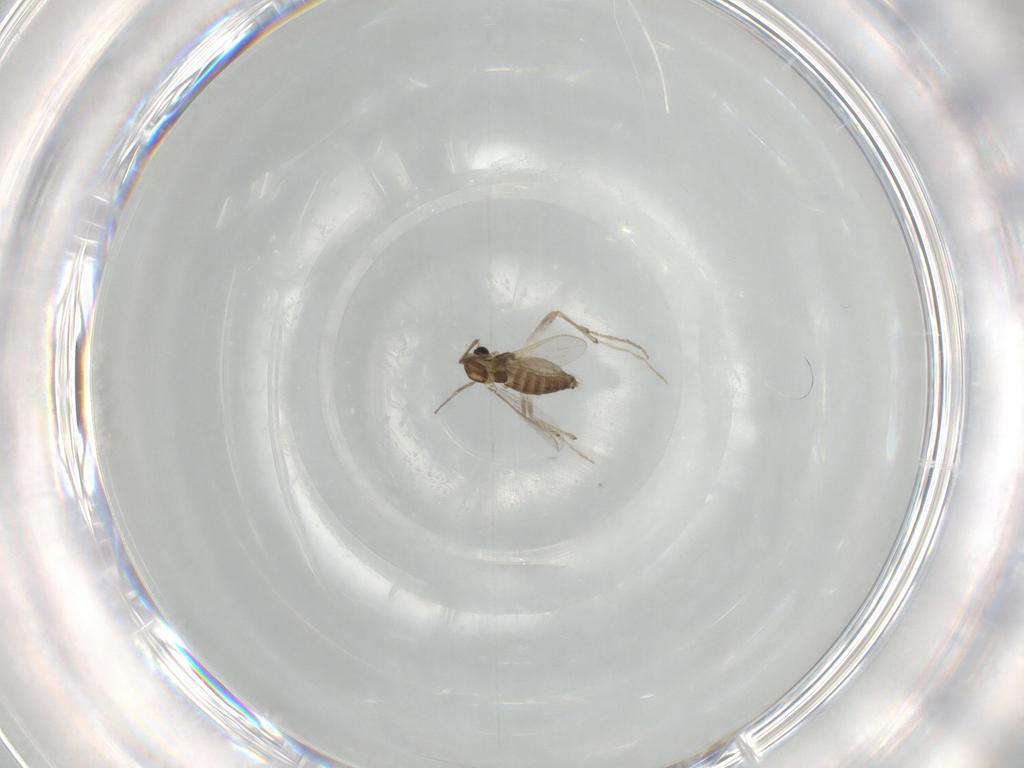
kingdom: Animalia
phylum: Arthropoda
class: Insecta
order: Diptera
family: Chironomidae
